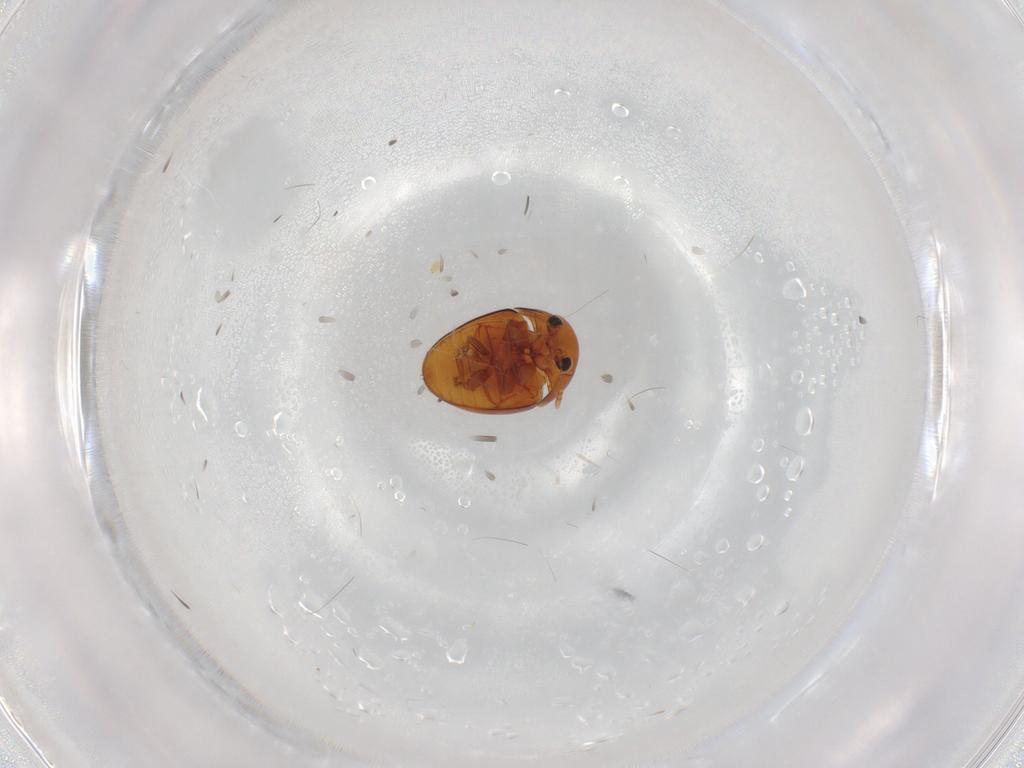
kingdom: Animalia
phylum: Arthropoda
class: Insecta
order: Coleoptera
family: Phalacridae
